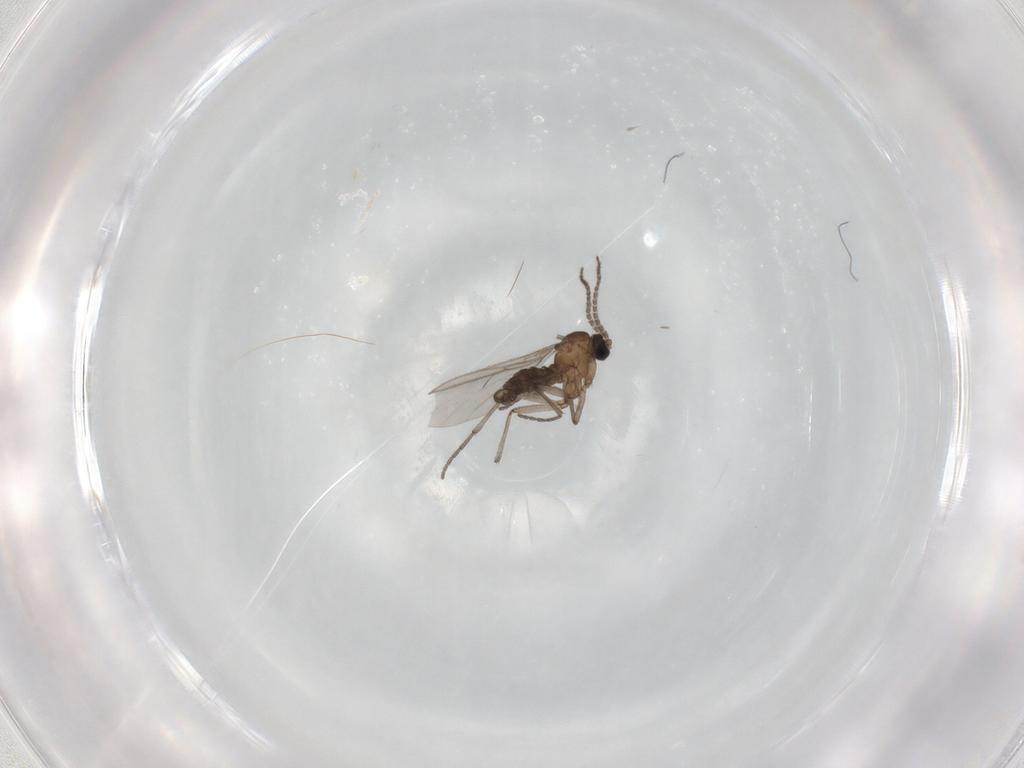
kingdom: Animalia
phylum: Arthropoda
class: Insecta
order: Diptera
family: Sciaridae
